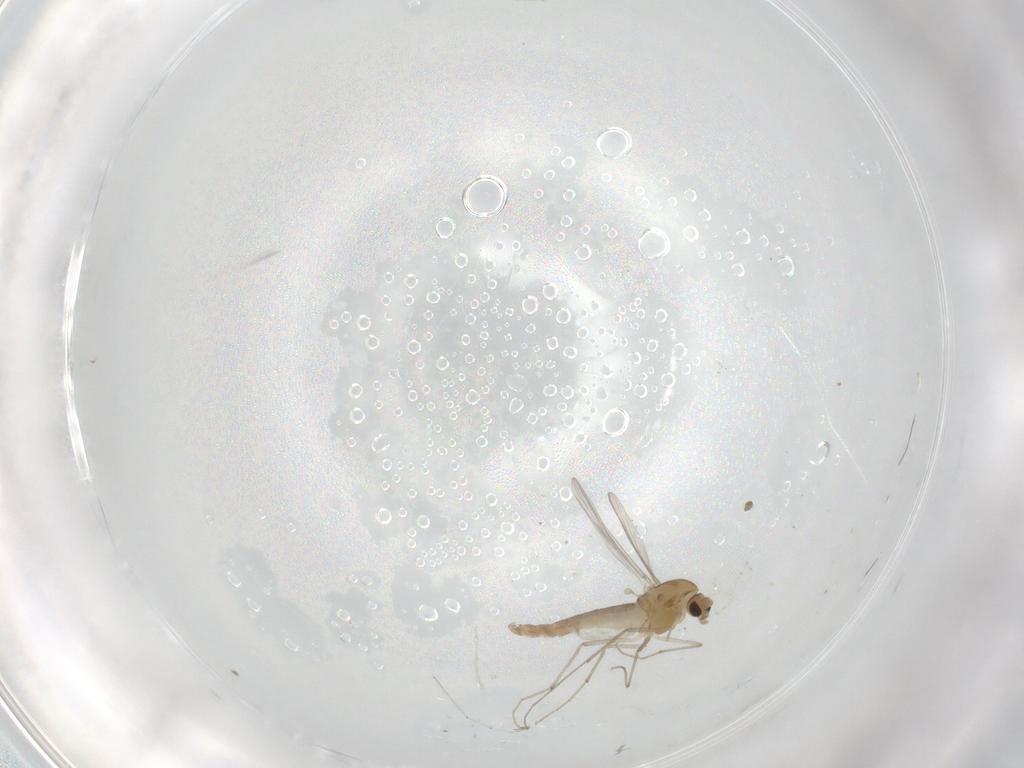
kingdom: Animalia
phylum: Arthropoda
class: Insecta
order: Diptera
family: Chironomidae
